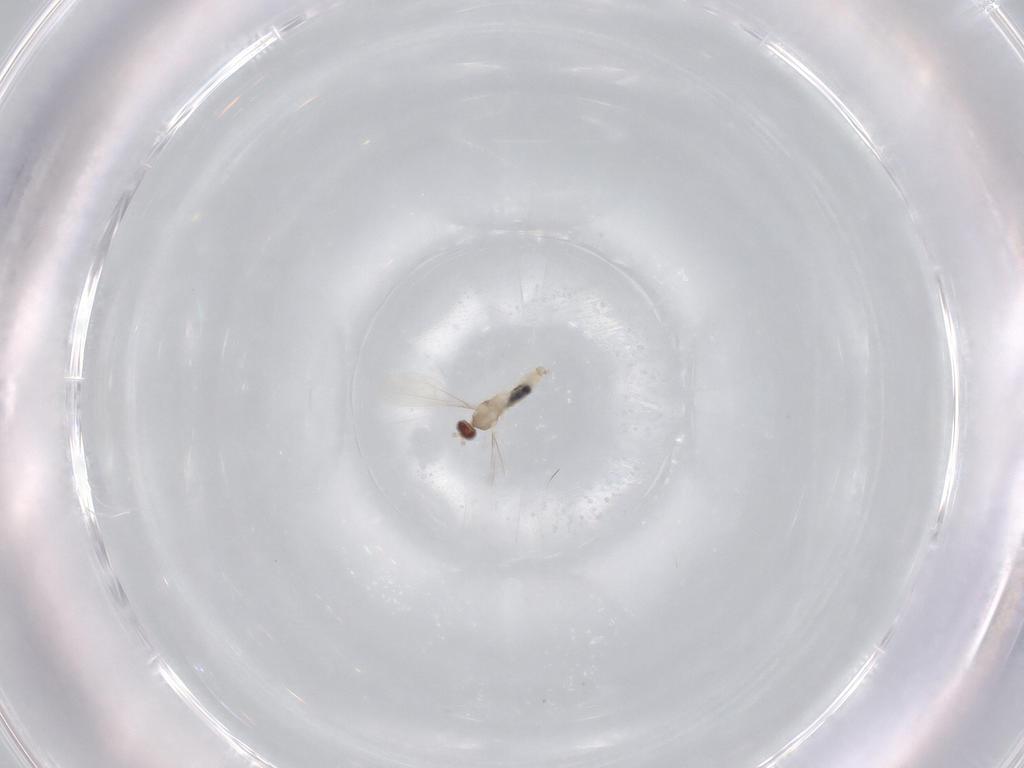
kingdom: Animalia
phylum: Arthropoda
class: Insecta
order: Diptera
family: Cecidomyiidae
